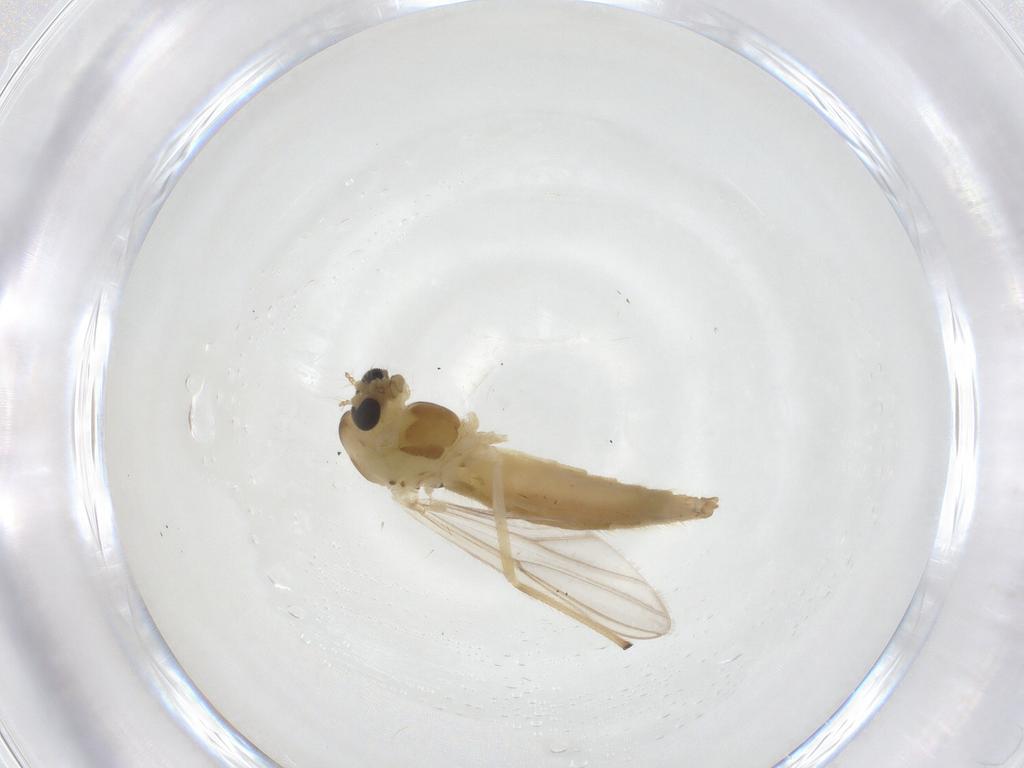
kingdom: Animalia
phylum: Arthropoda
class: Insecta
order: Diptera
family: Chironomidae
